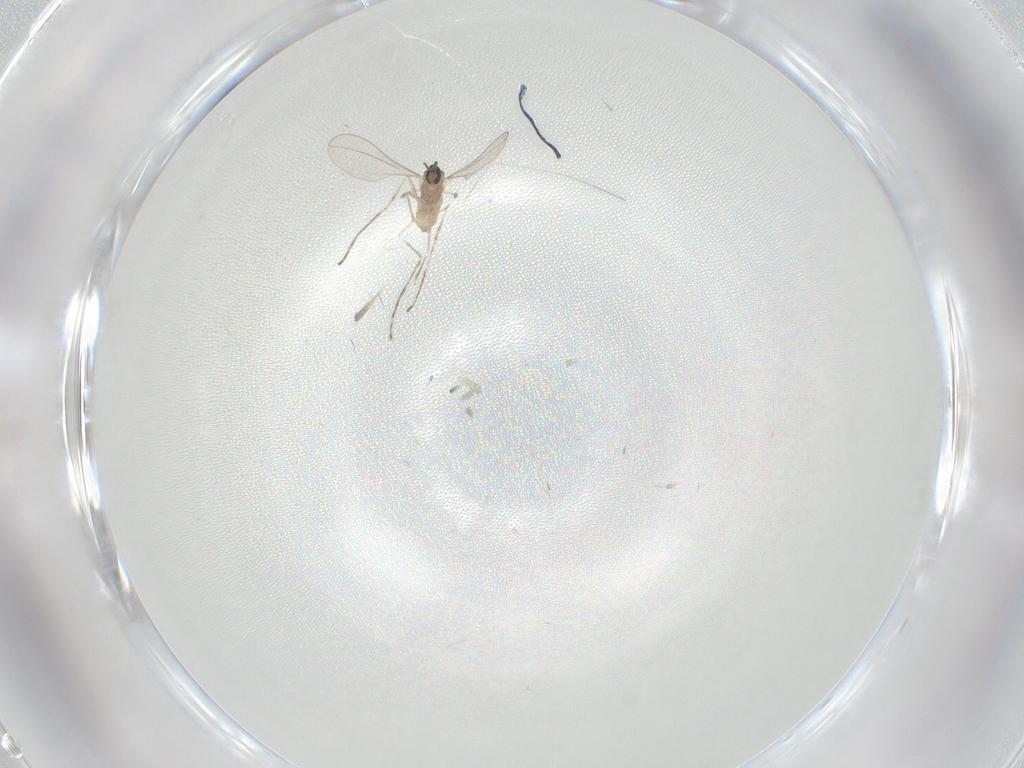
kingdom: Animalia
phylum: Arthropoda
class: Insecta
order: Diptera
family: Cecidomyiidae
